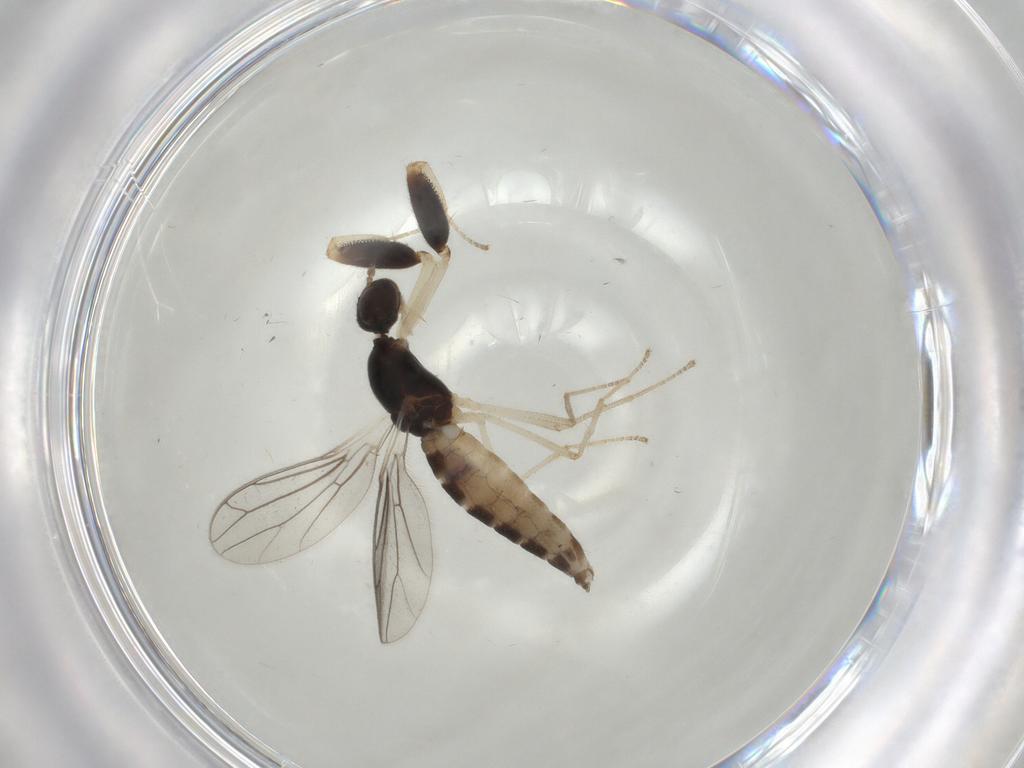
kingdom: Animalia
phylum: Arthropoda
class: Insecta
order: Diptera
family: Empididae
